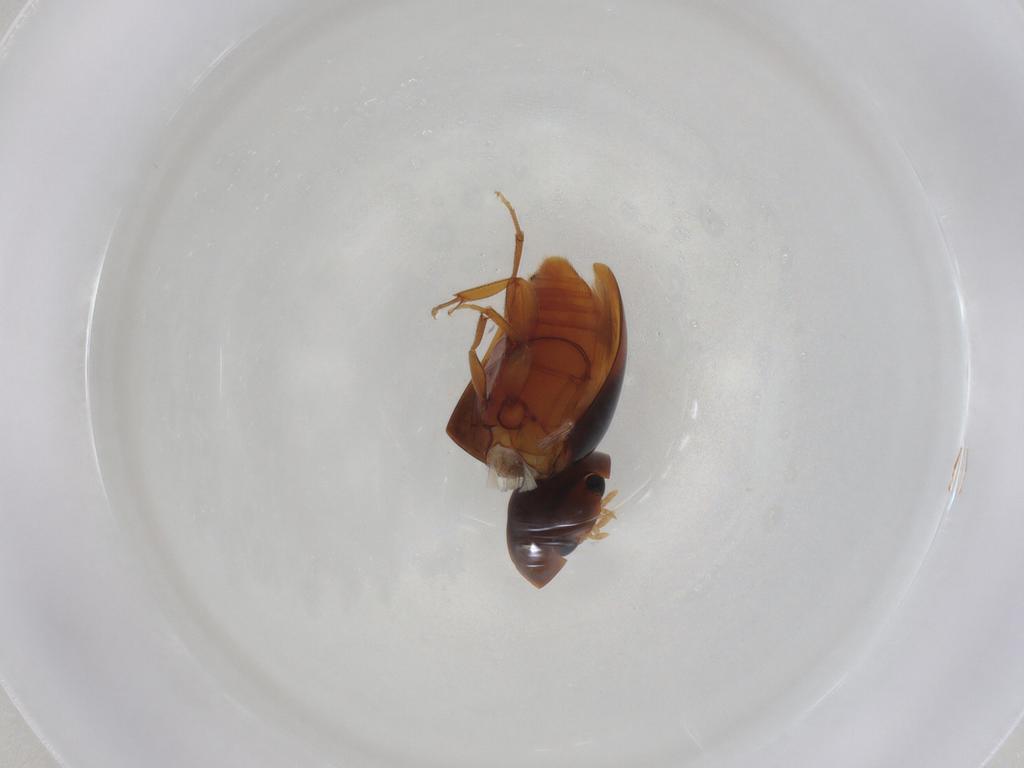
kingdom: Animalia
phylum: Arthropoda
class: Insecta
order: Coleoptera
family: Phalacridae
